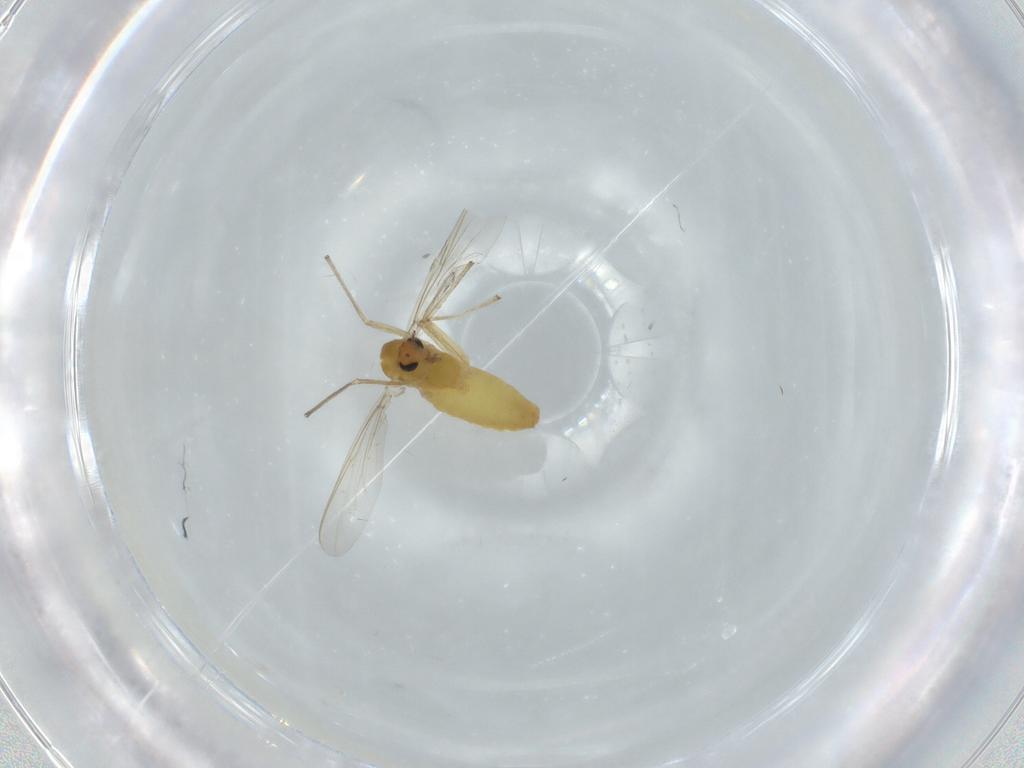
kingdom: Animalia
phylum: Arthropoda
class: Insecta
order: Diptera
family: Chironomidae
